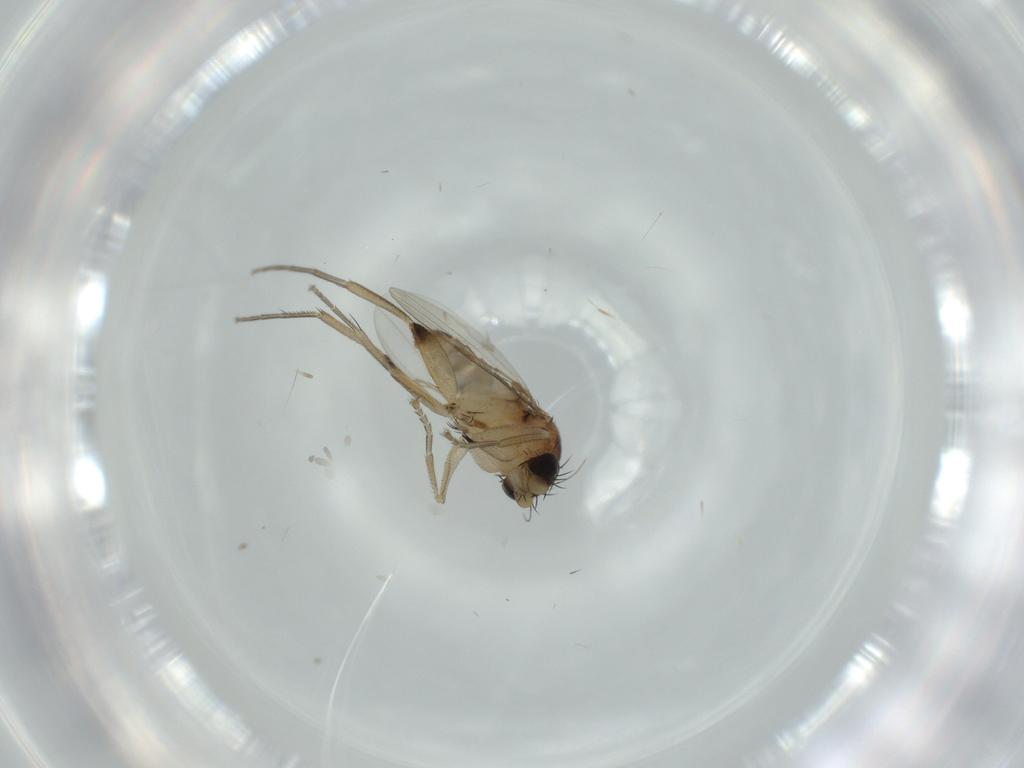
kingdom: Animalia
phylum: Arthropoda
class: Insecta
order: Diptera
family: Phoridae
